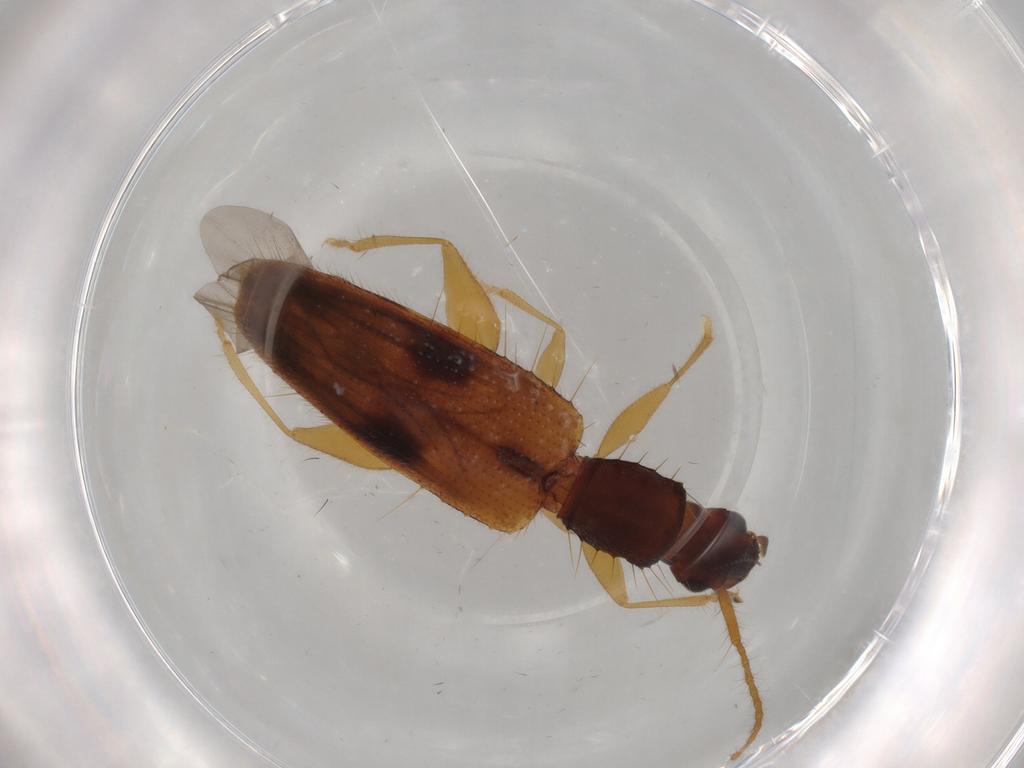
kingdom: Animalia
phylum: Arthropoda
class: Insecta
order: Coleoptera
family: Silvanidae
